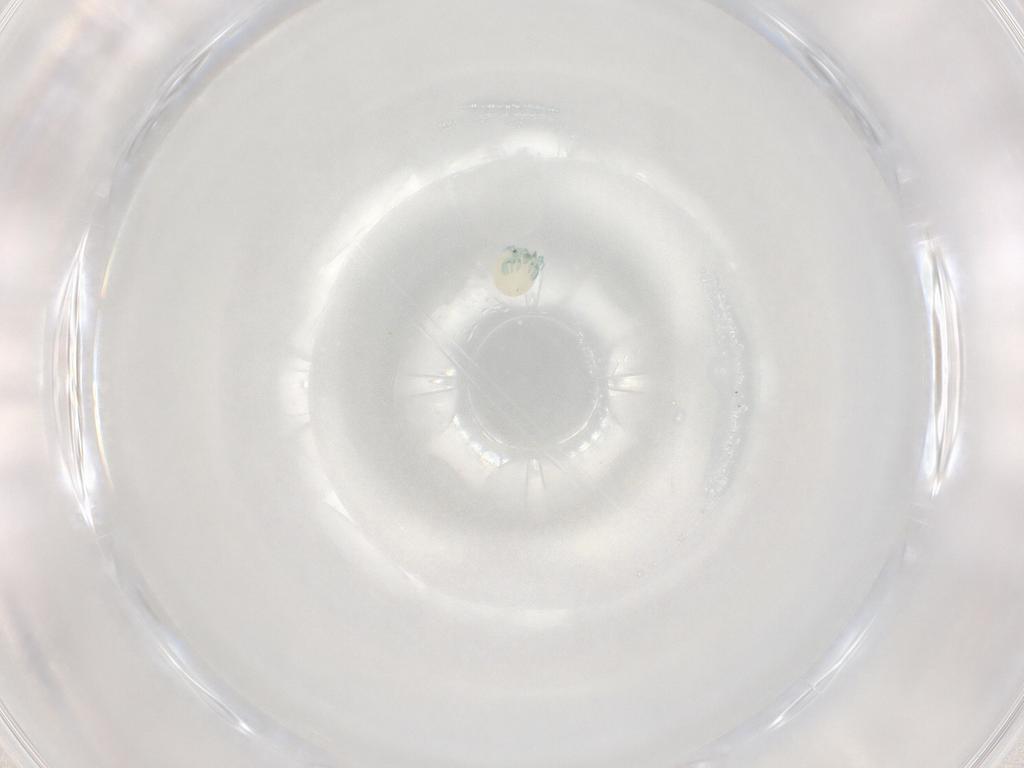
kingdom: Animalia
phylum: Arthropoda
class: Arachnida
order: Trombidiformes
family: Arrenuridae
